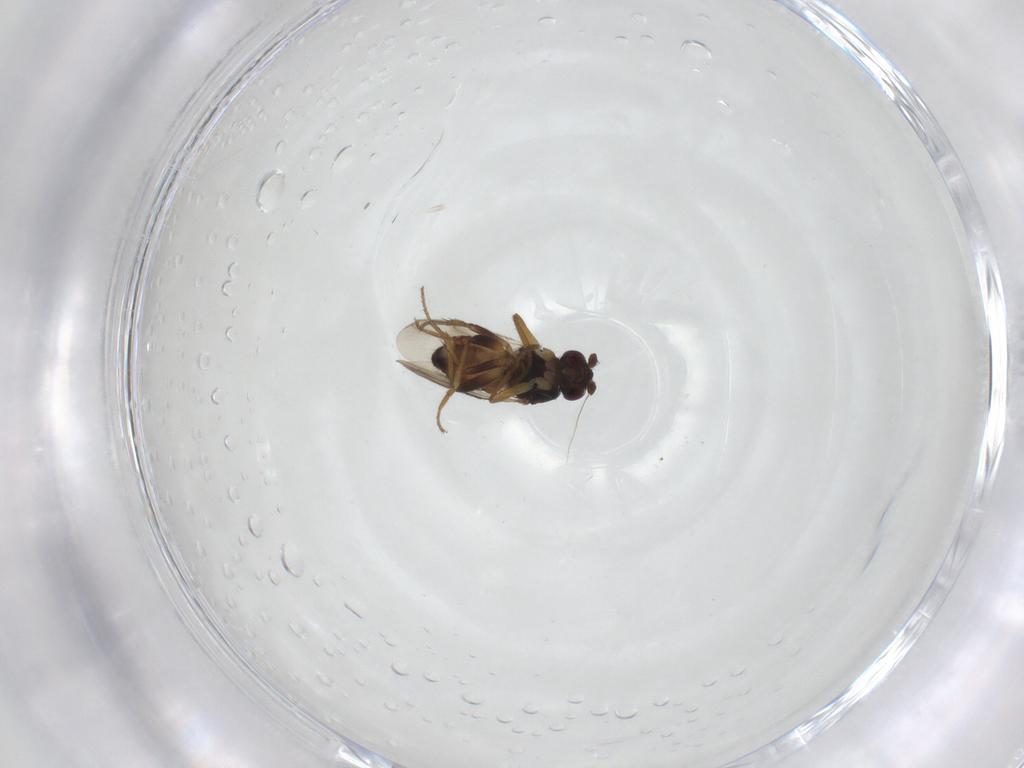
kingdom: Animalia
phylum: Arthropoda
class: Insecta
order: Diptera
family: Sphaeroceridae
